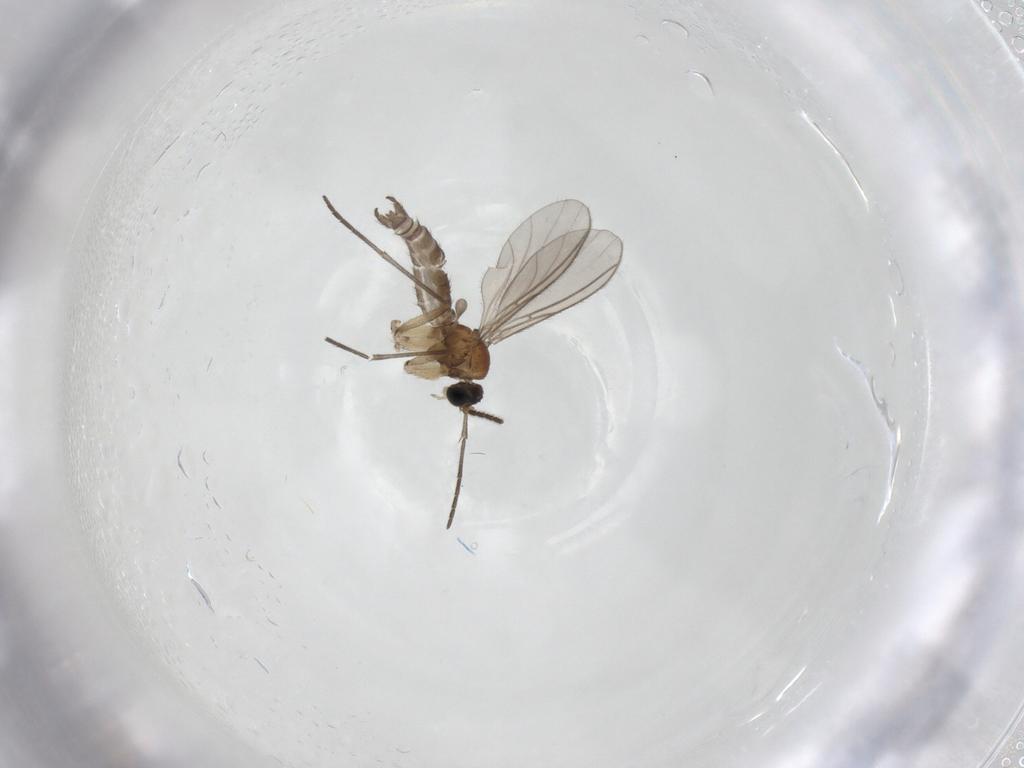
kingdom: Animalia
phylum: Arthropoda
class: Insecta
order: Diptera
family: Sciaridae
